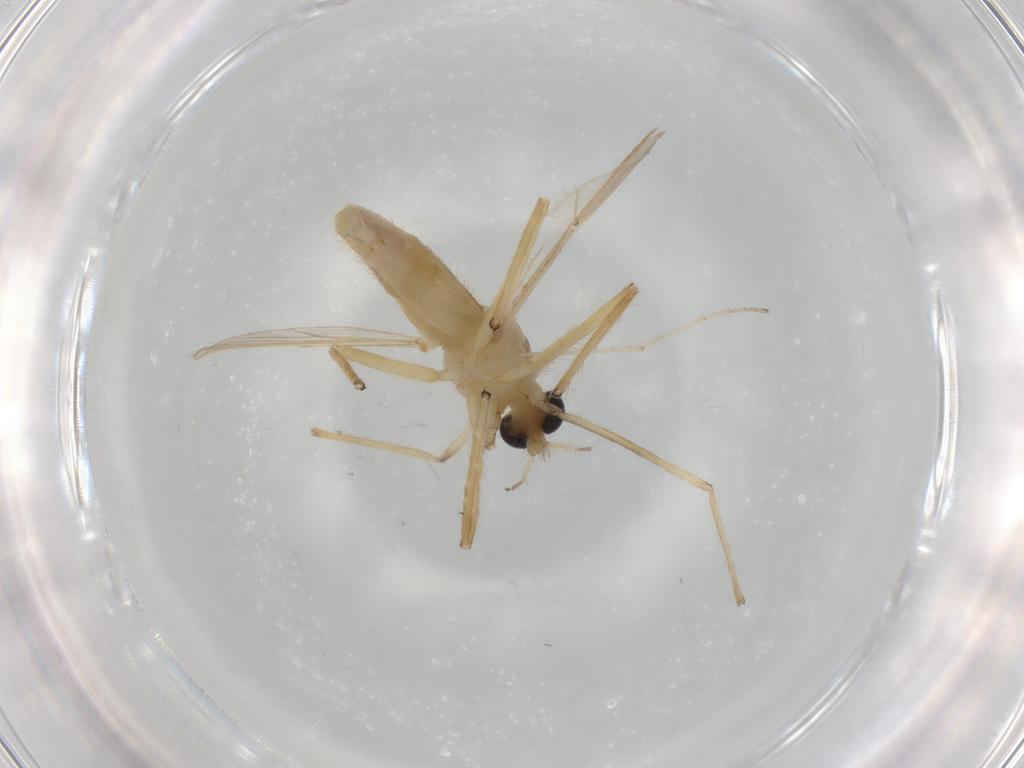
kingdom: Animalia
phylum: Arthropoda
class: Insecta
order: Diptera
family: Chironomidae
